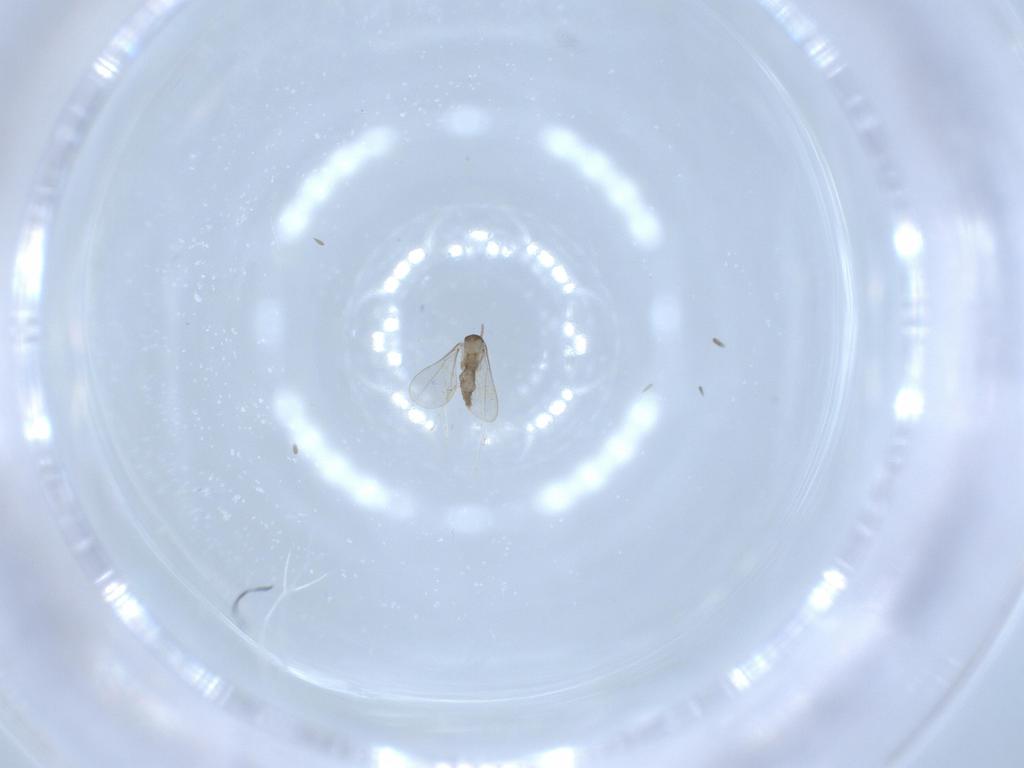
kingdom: Animalia
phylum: Arthropoda
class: Insecta
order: Diptera
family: Cecidomyiidae
